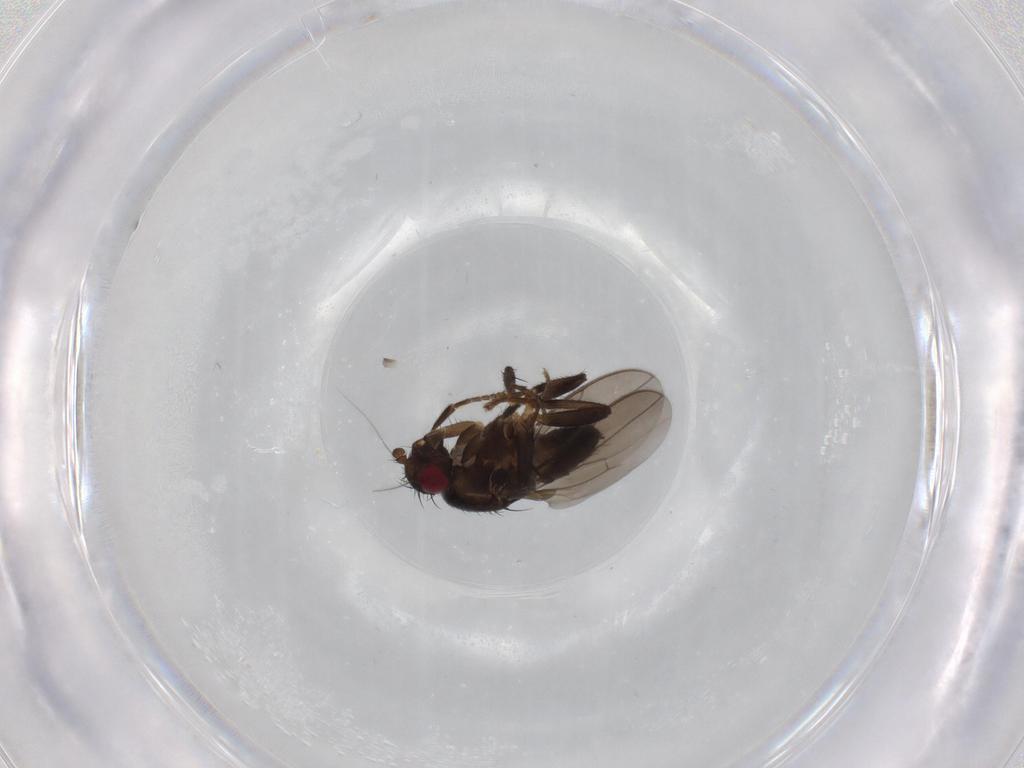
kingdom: Animalia
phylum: Arthropoda
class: Insecta
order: Diptera
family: Sphaeroceridae
